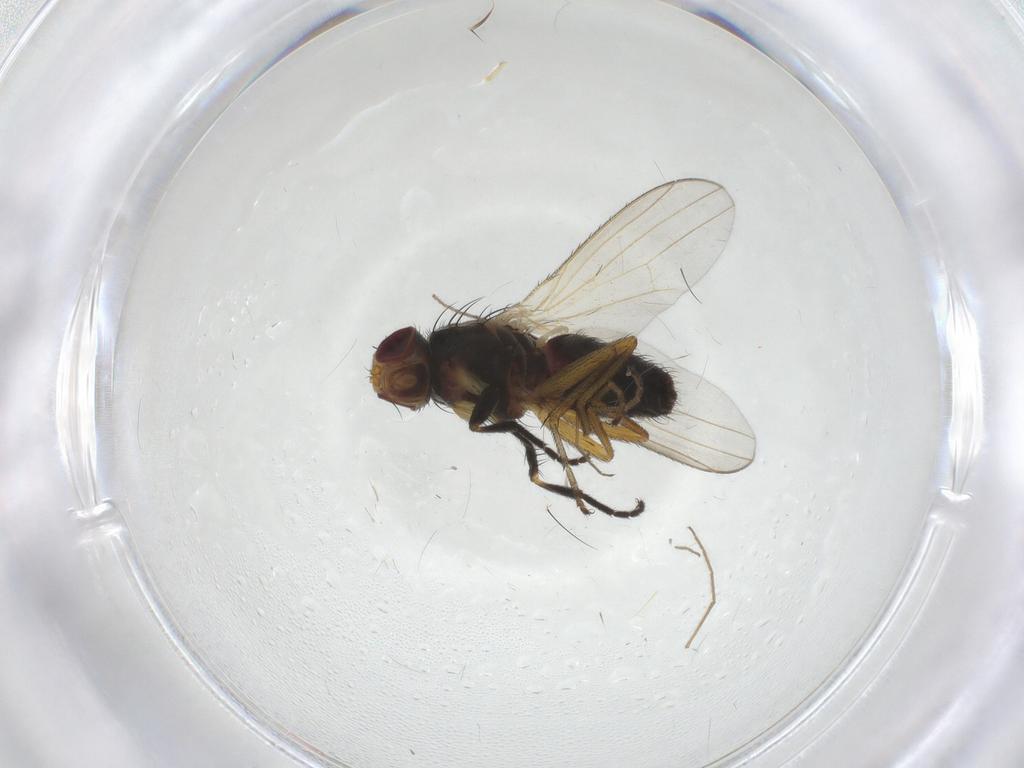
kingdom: Animalia
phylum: Arthropoda
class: Insecta
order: Diptera
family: Heleomyzidae
